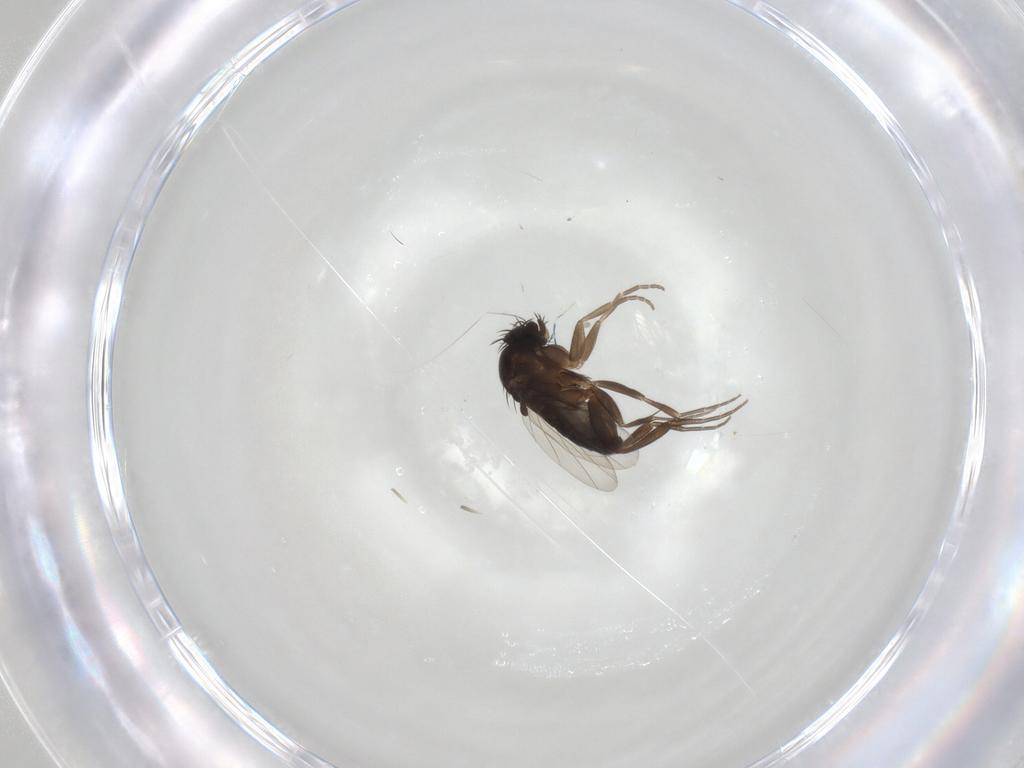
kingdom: Animalia
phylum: Arthropoda
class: Insecta
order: Diptera
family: Phoridae
